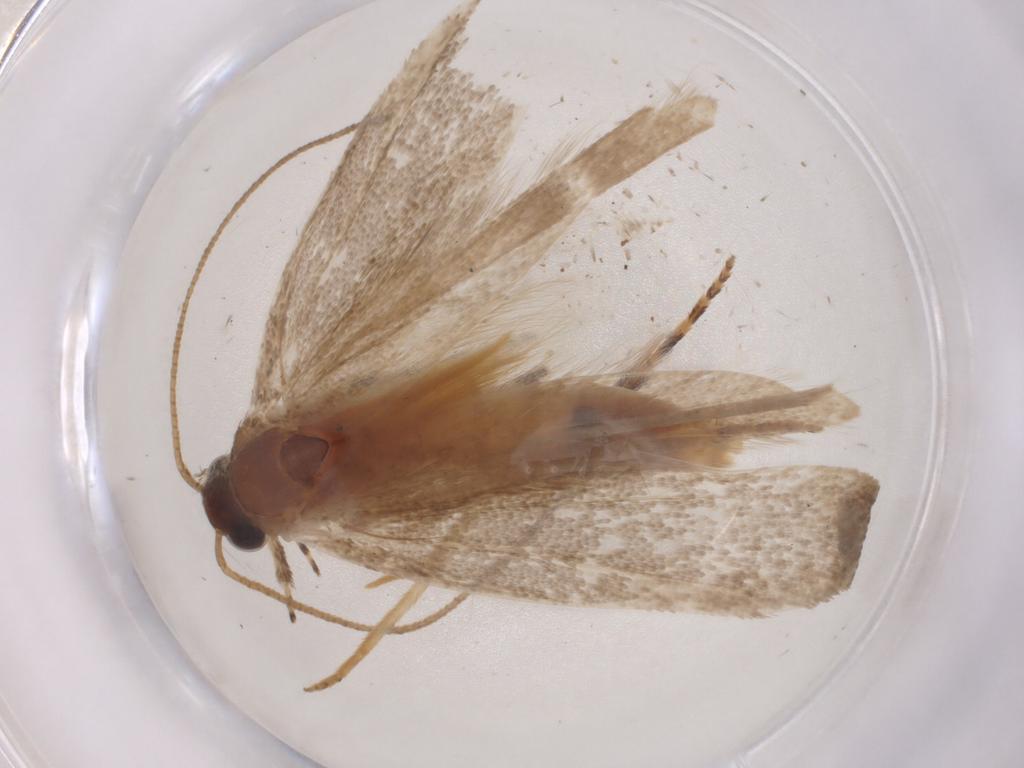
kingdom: Animalia
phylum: Arthropoda
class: Insecta
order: Lepidoptera
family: Gelechiidae
